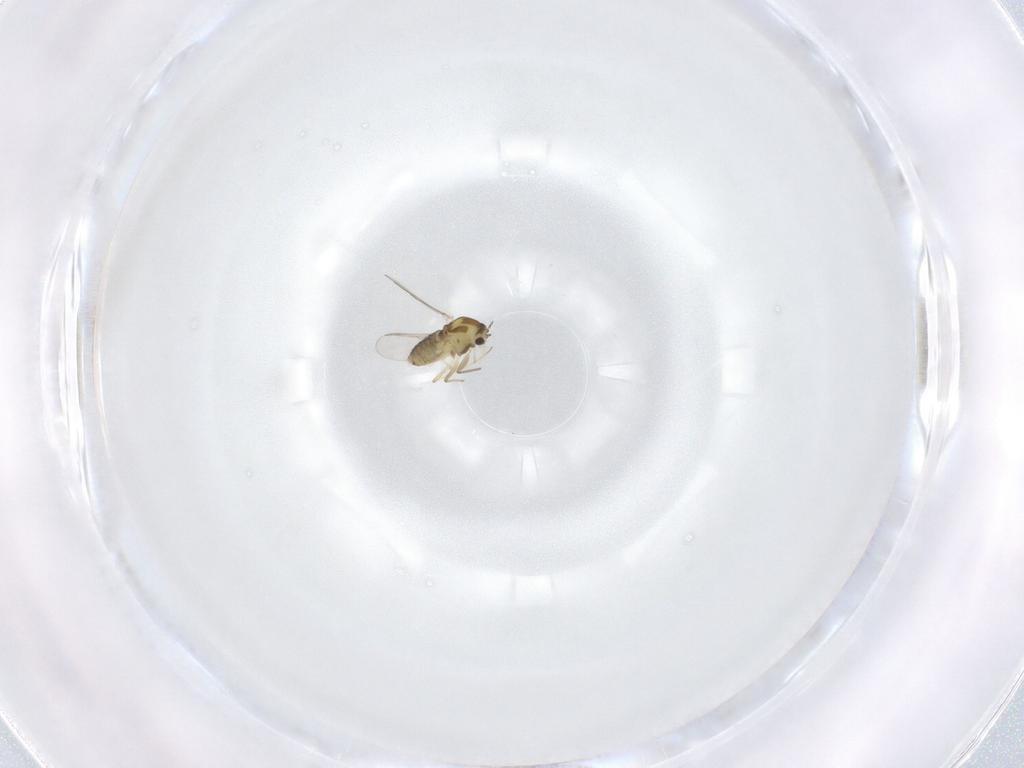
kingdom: Animalia
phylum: Arthropoda
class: Insecta
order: Diptera
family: Chironomidae
